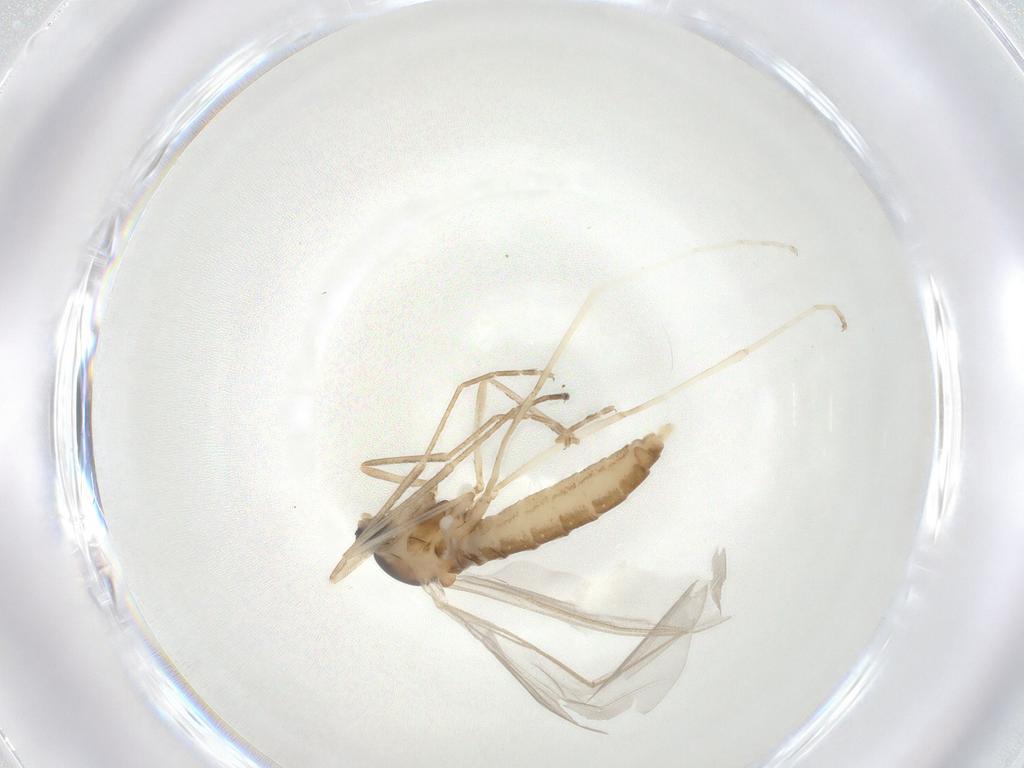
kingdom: Animalia
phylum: Arthropoda
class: Insecta
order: Diptera
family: Cecidomyiidae
